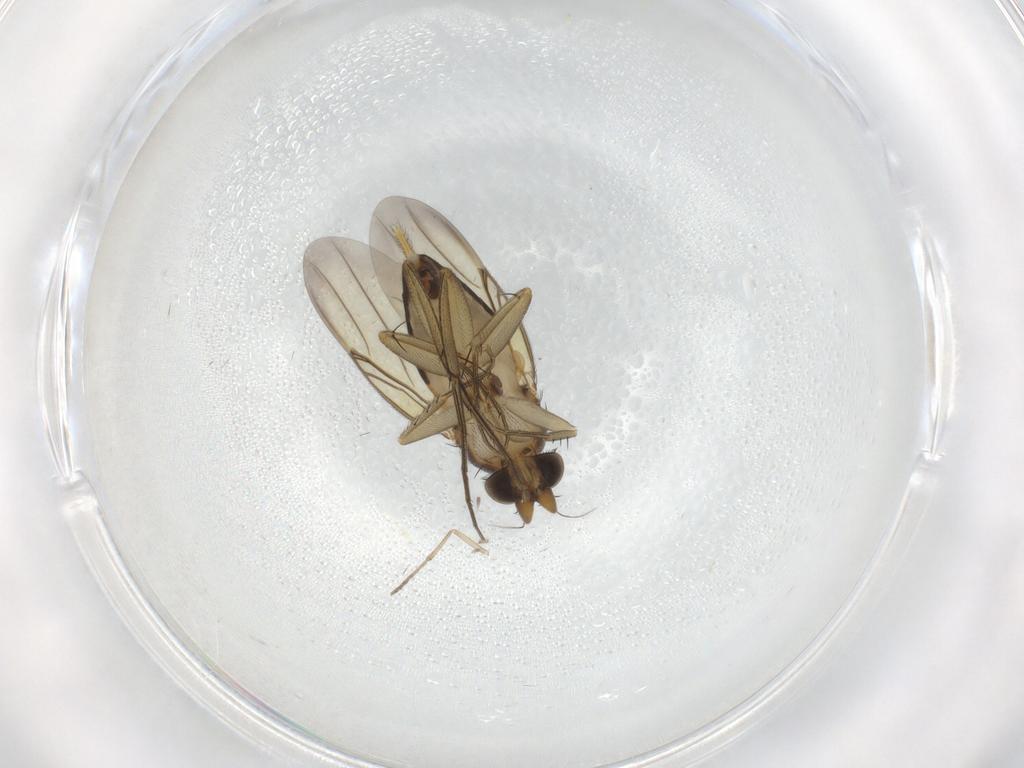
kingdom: Animalia
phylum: Arthropoda
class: Insecta
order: Diptera
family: Phoridae
